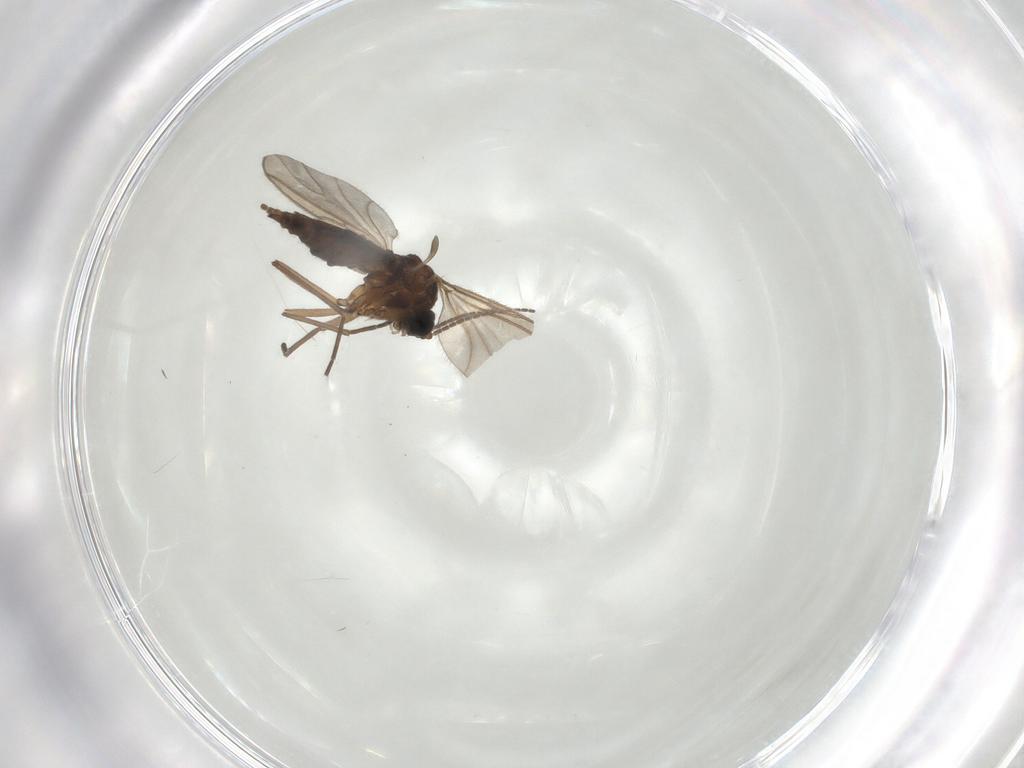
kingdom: Animalia
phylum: Arthropoda
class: Insecta
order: Diptera
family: Sciaridae
